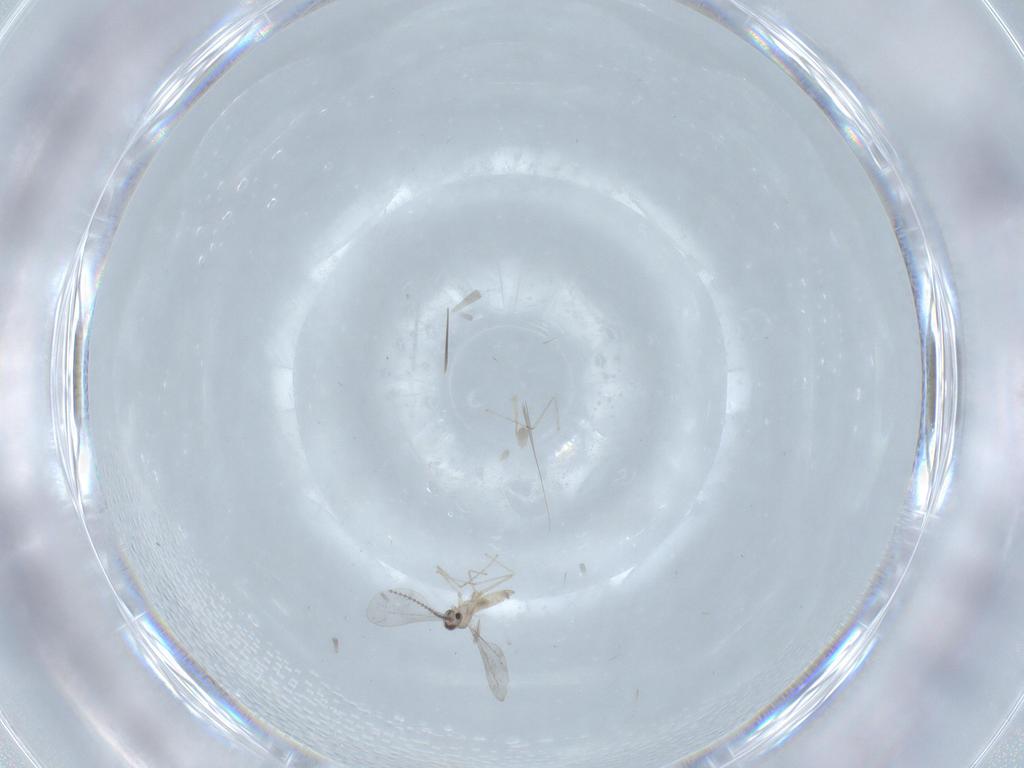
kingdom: Animalia
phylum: Arthropoda
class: Insecta
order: Diptera
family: Cecidomyiidae
